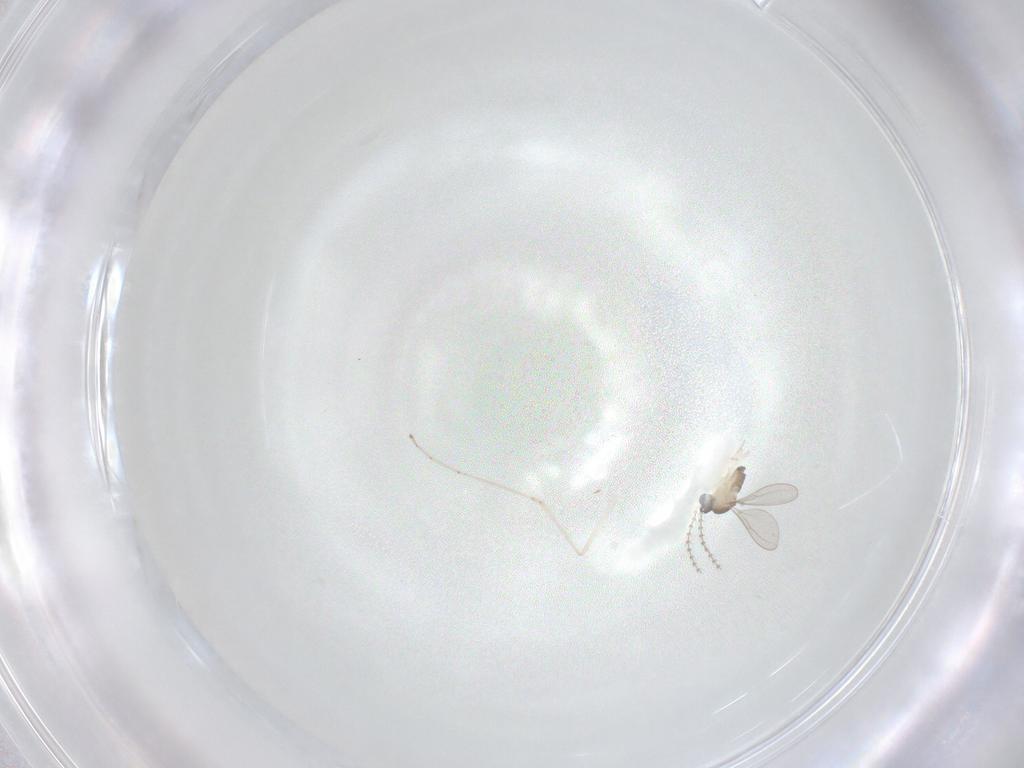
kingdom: Animalia
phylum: Arthropoda
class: Insecta
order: Diptera
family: Cecidomyiidae
